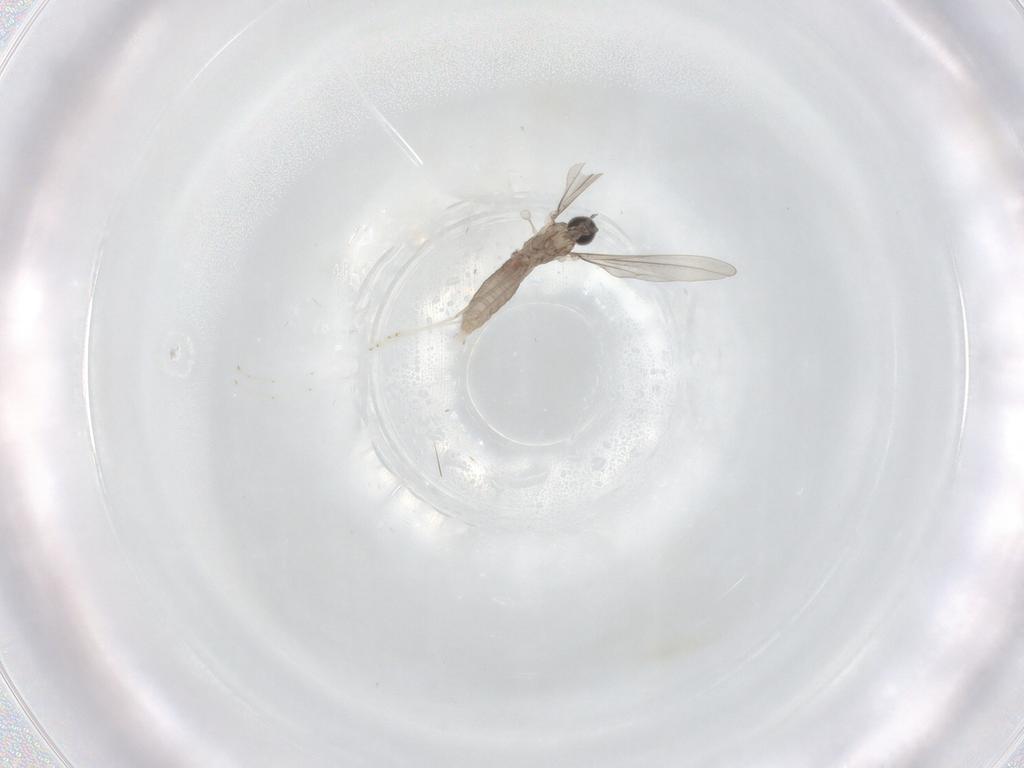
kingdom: Animalia
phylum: Arthropoda
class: Insecta
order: Diptera
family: Cecidomyiidae
